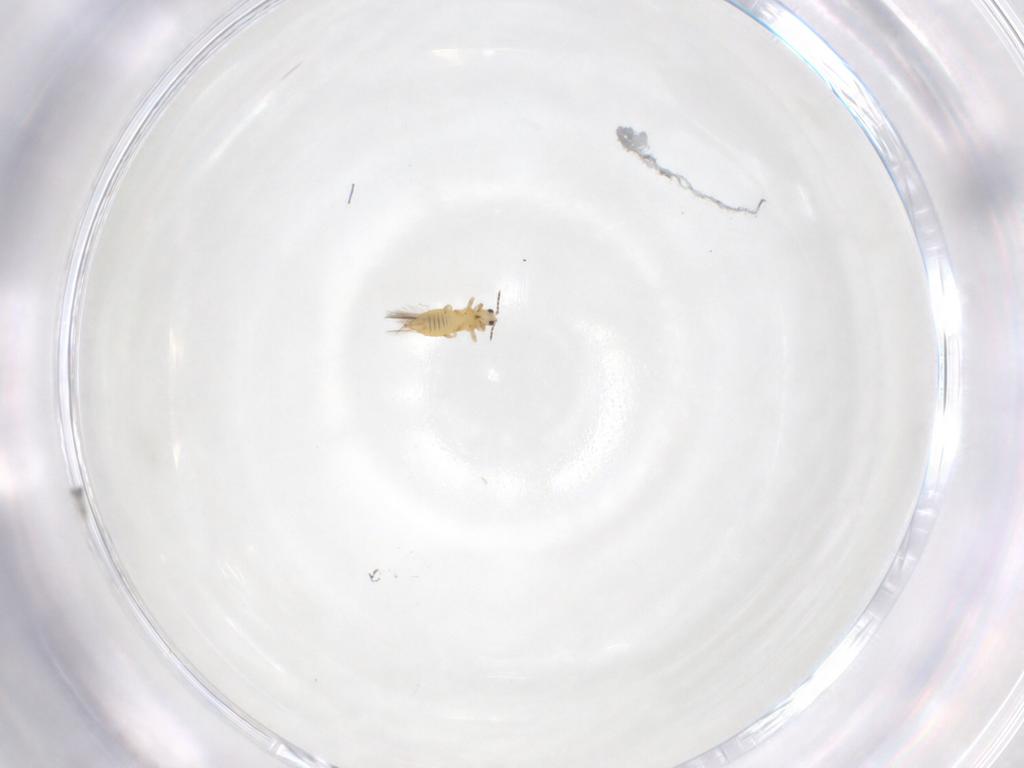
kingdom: Animalia
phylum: Arthropoda
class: Insecta
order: Thysanoptera
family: Thripidae
